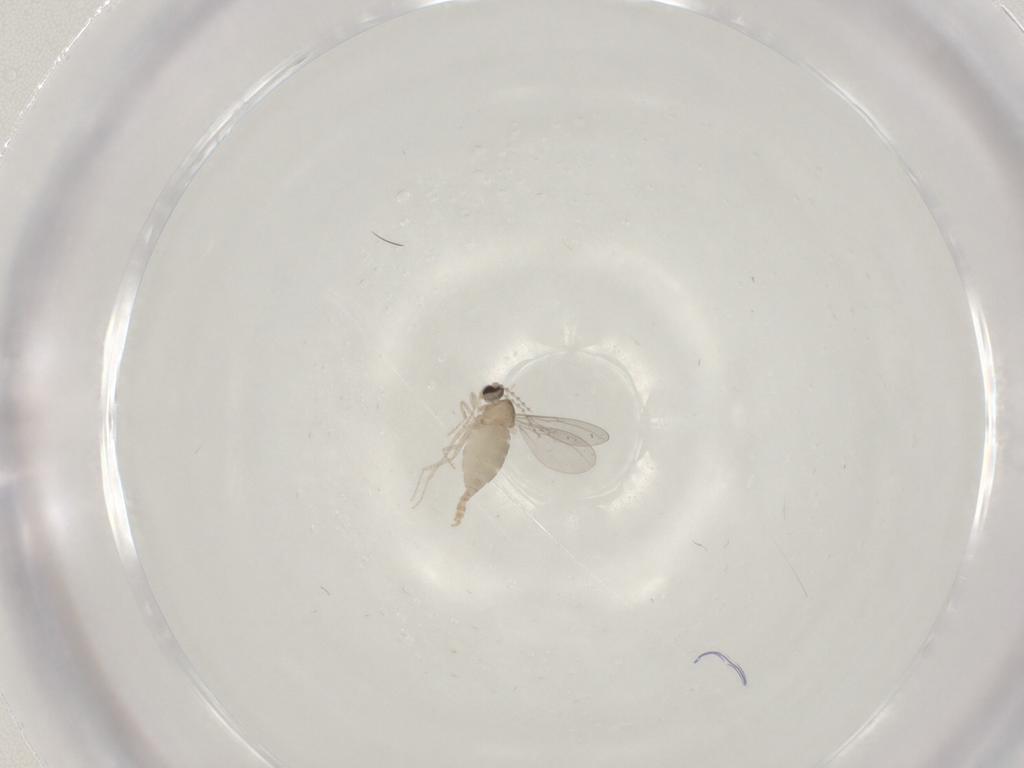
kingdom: Animalia
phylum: Arthropoda
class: Insecta
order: Diptera
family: Cecidomyiidae
